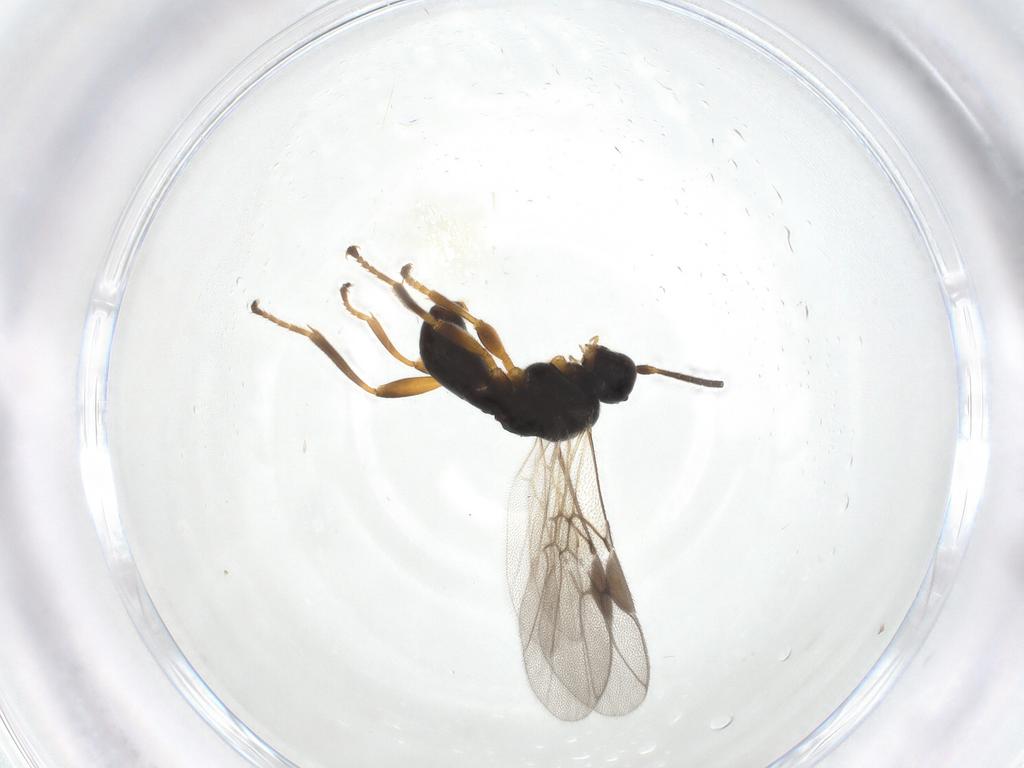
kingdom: Animalia
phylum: Arthropoda
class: Insecta
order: Hymenoptera
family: Braconidae
